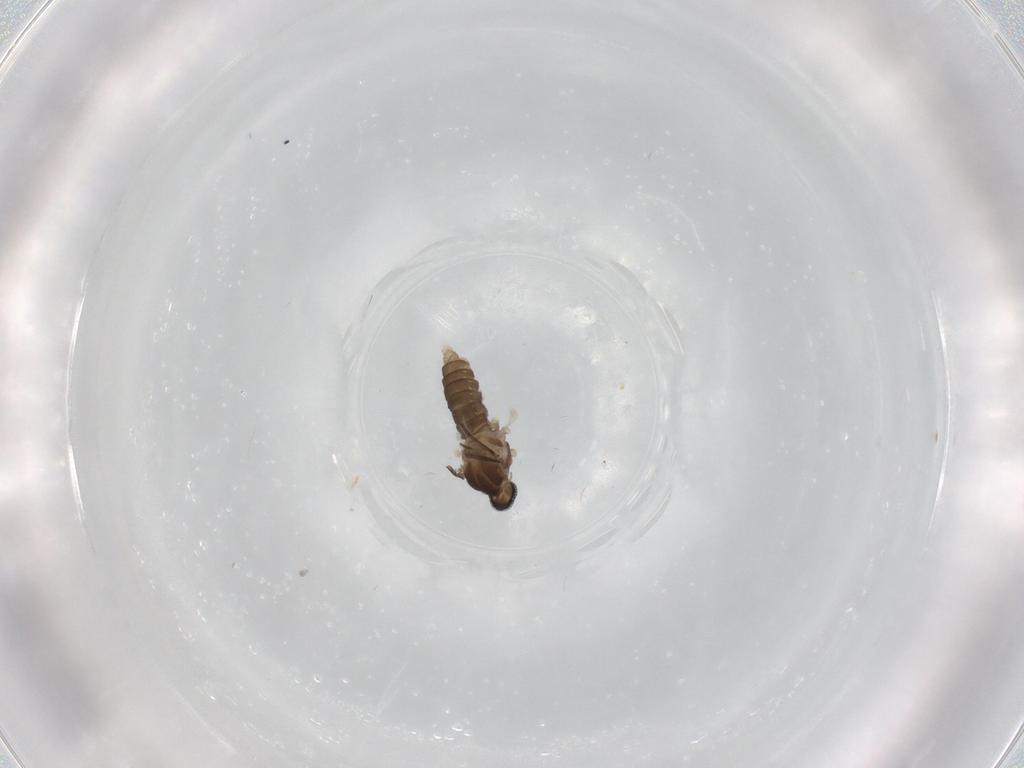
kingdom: Animalia
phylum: Arthropoda
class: Insecta
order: Diptera
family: Cecidomyiidae
